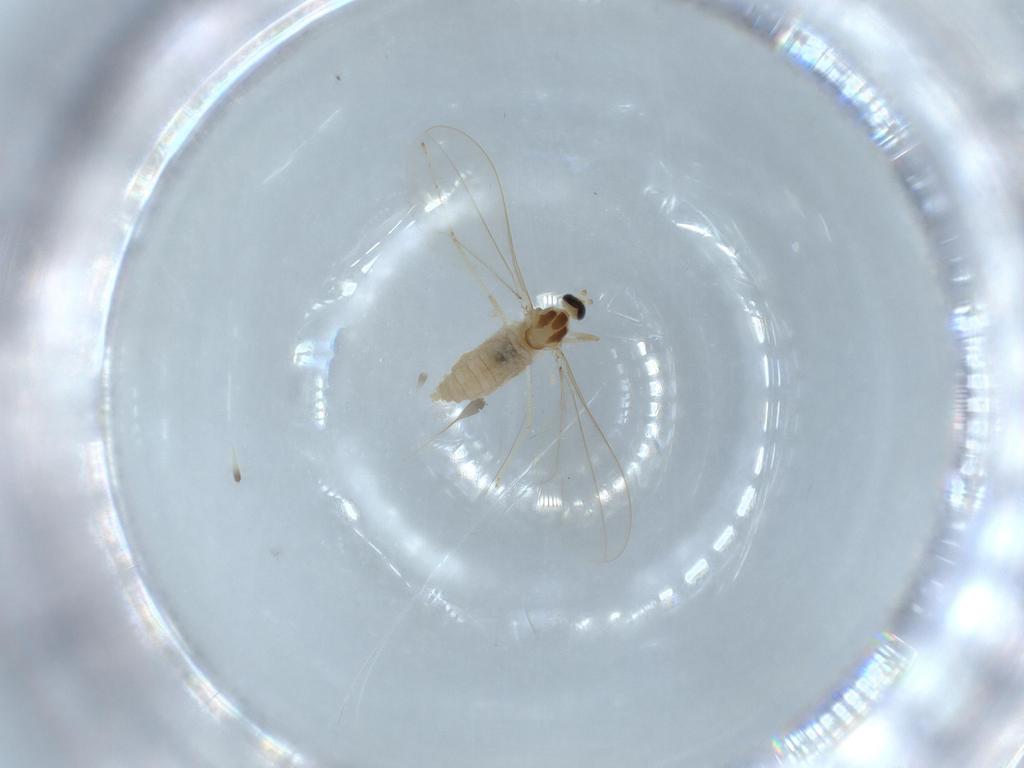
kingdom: Animalia
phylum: Arthropoda
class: Insecta
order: Diptera
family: Cecidomyiidae
